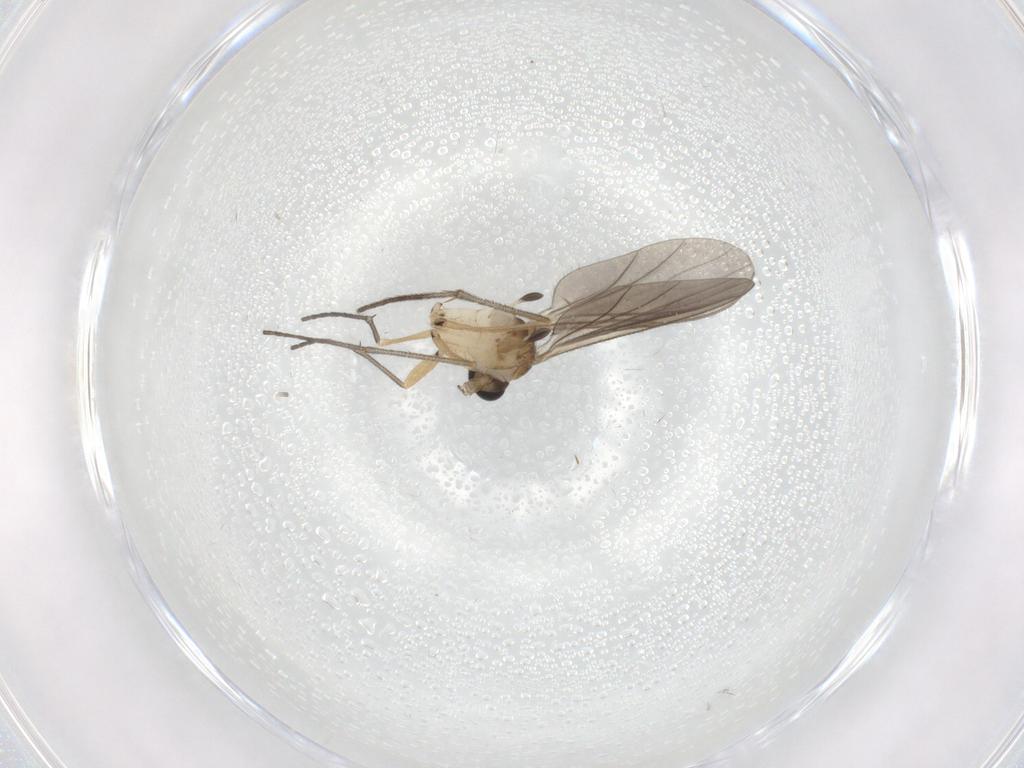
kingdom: Animalia
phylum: Arthropoda
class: Insecta
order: Diptera
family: Sciaridae
